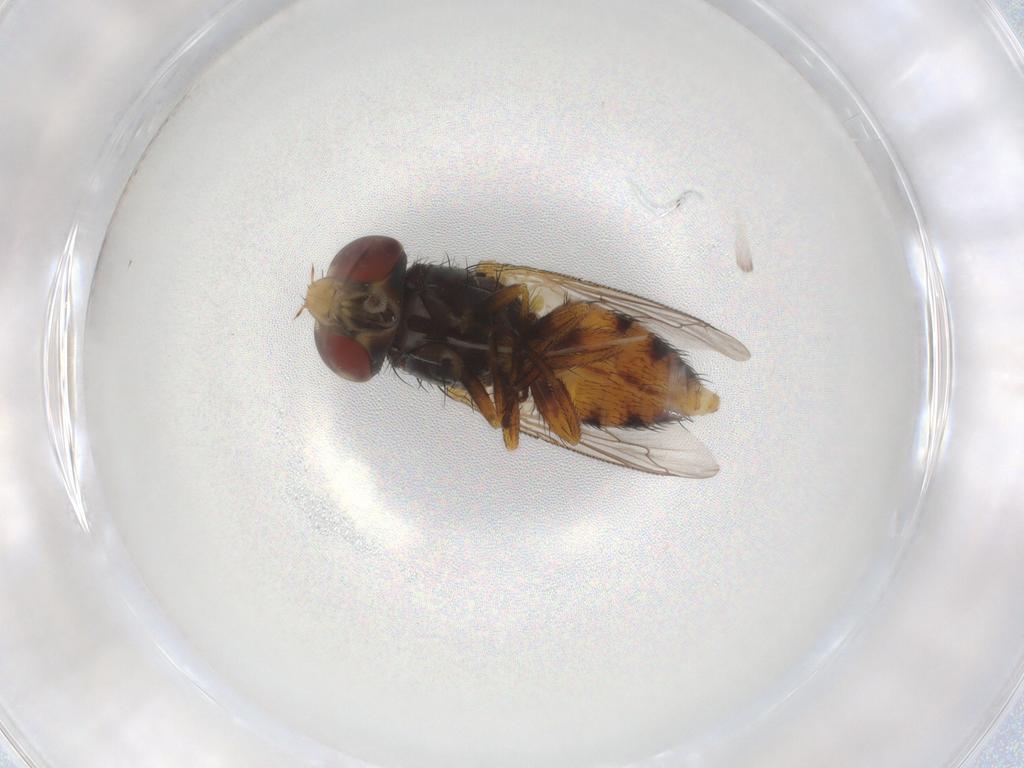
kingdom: Animalia
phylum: Arthropoda
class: Insecta
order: Diptera
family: Sarcophagidae
